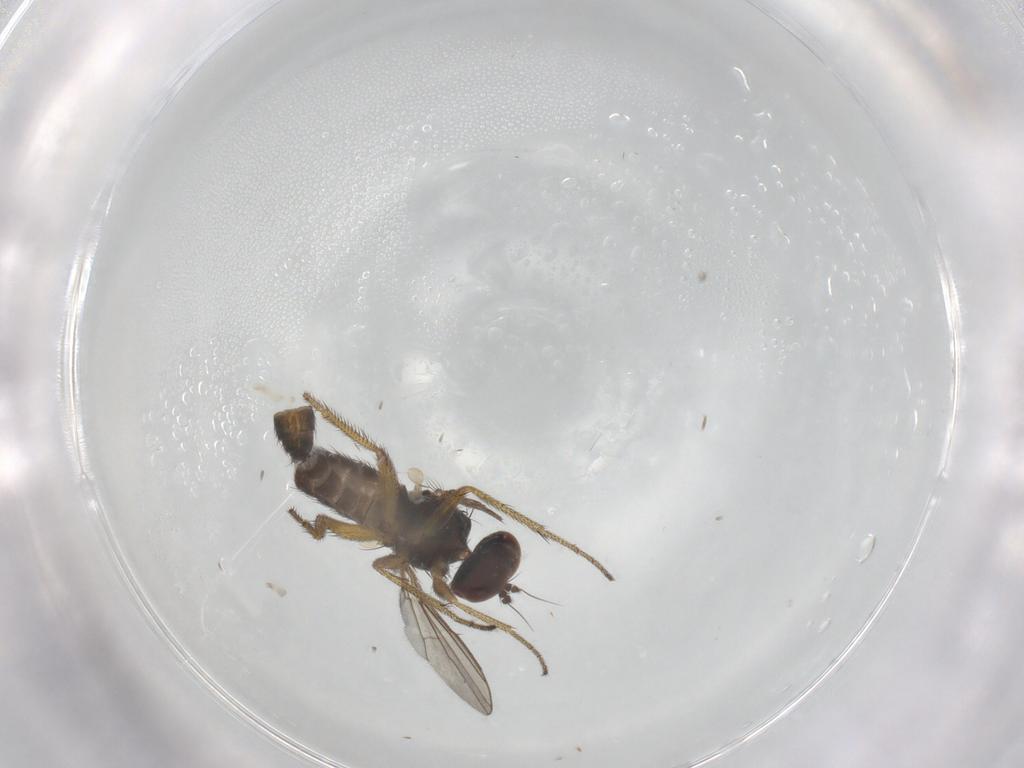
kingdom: Animalia
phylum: Arthropoda
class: Insecta
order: Diptera
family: Dolichopodidae
